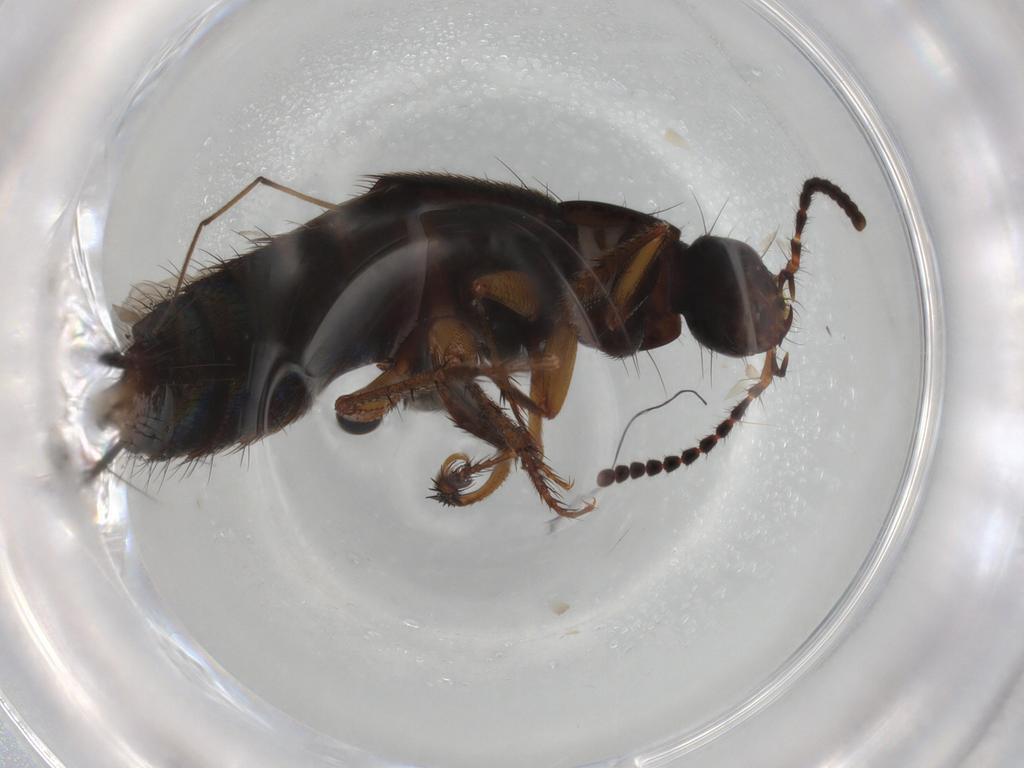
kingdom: Animalia
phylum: Arthropoda
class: Insecta
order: Coleoptera
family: Staphylinidae
